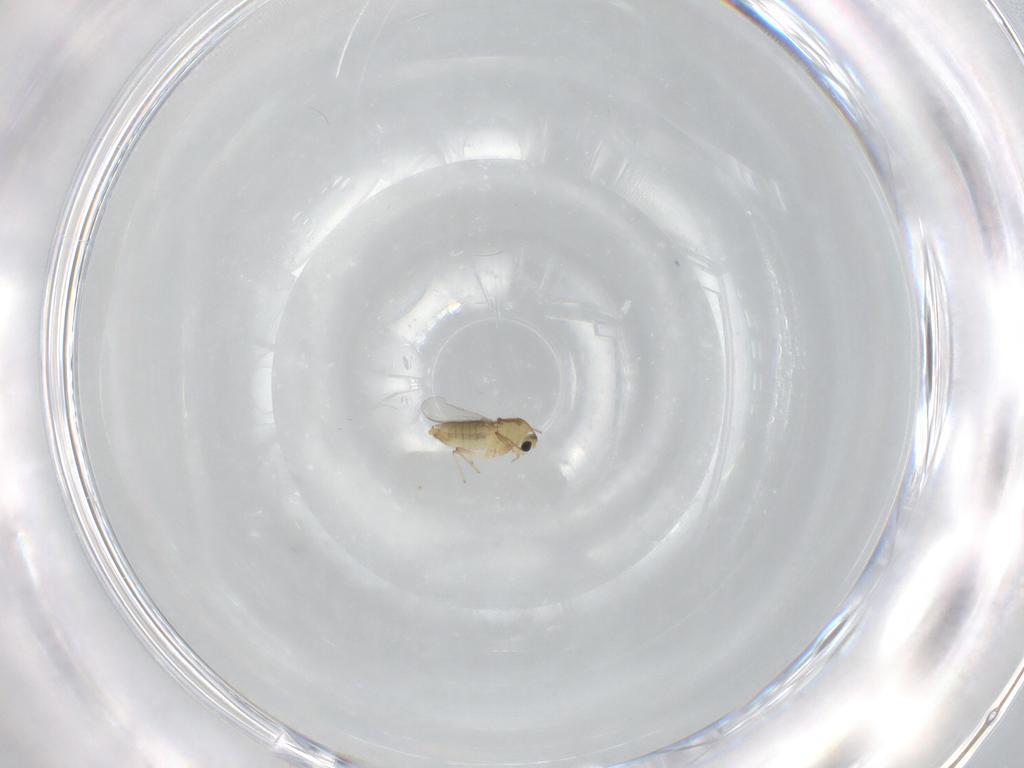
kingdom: Animalia
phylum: Arthropoda
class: Insecta
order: Diptera
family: Chironomidae
